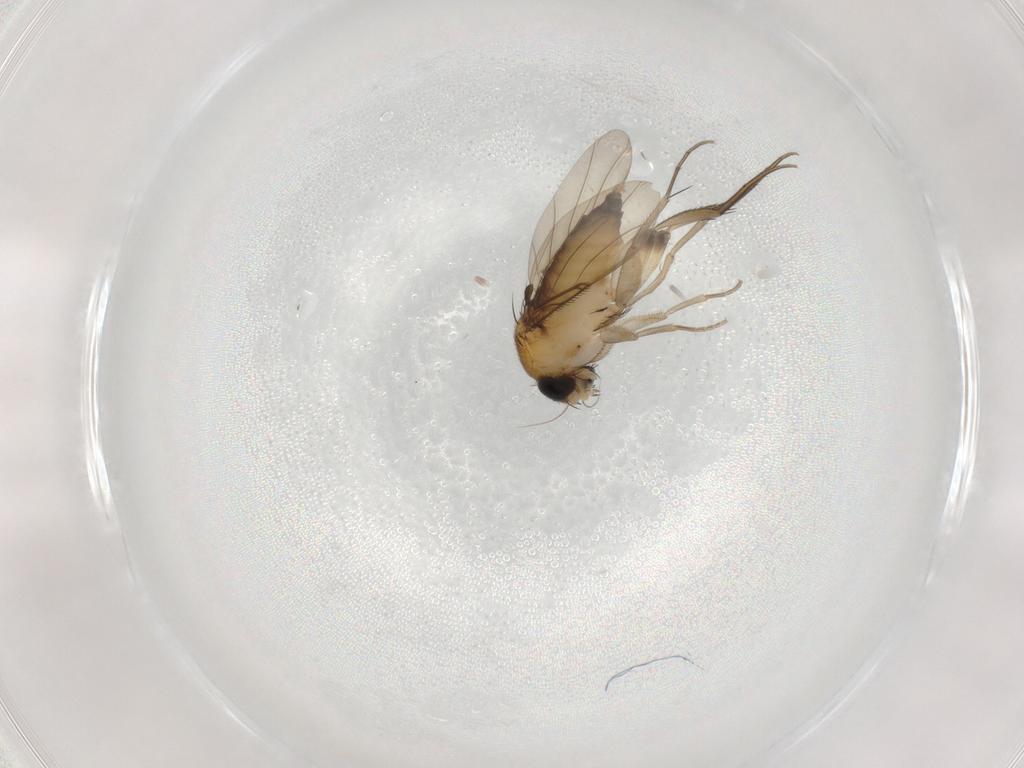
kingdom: Animalia
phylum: Arthropoda
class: Insecta
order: Diptera
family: Phoridae
